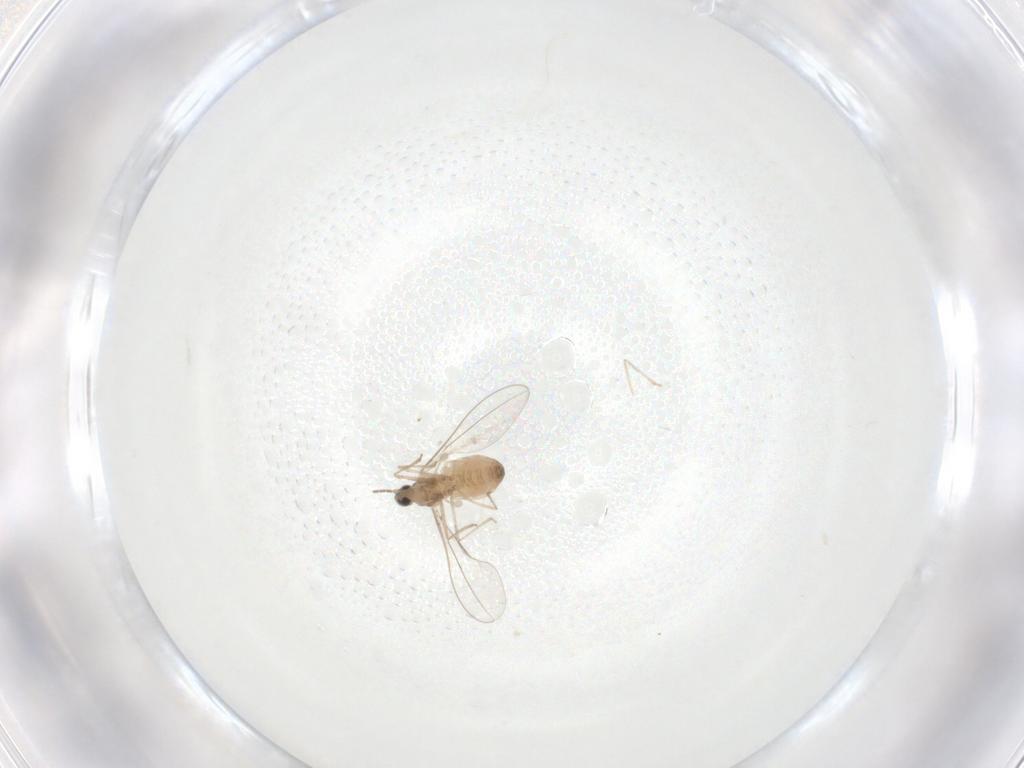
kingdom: Animalia
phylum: Arthropoda
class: Insecta
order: Diptera
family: Cecidomyiidae
